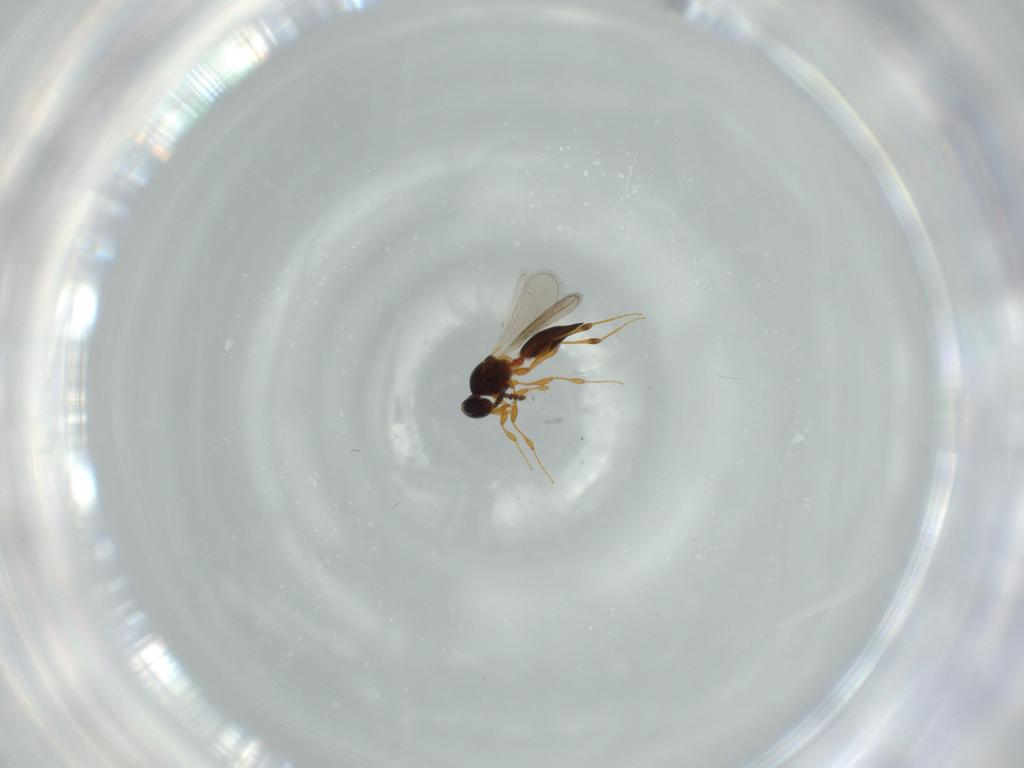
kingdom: Animalia
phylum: Arthropoda
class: Insecta
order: Hymenoptera
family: Platygastridae
